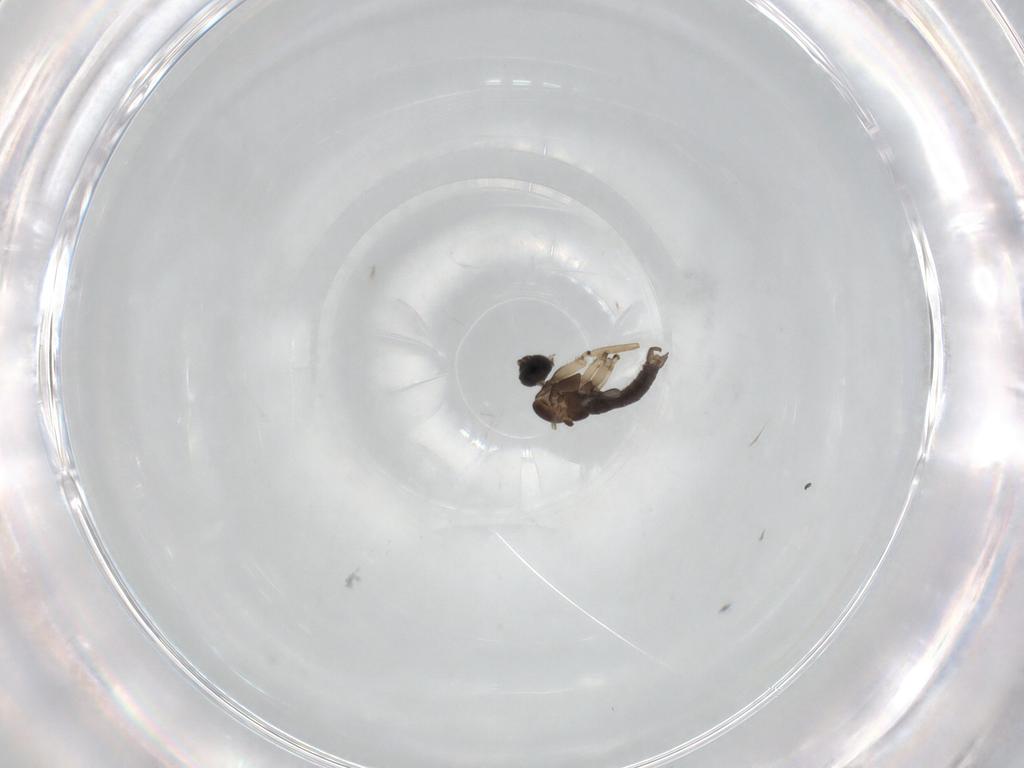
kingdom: Animalia
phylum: Arthropoda
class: Insecta
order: Diptera
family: Sciaridae
